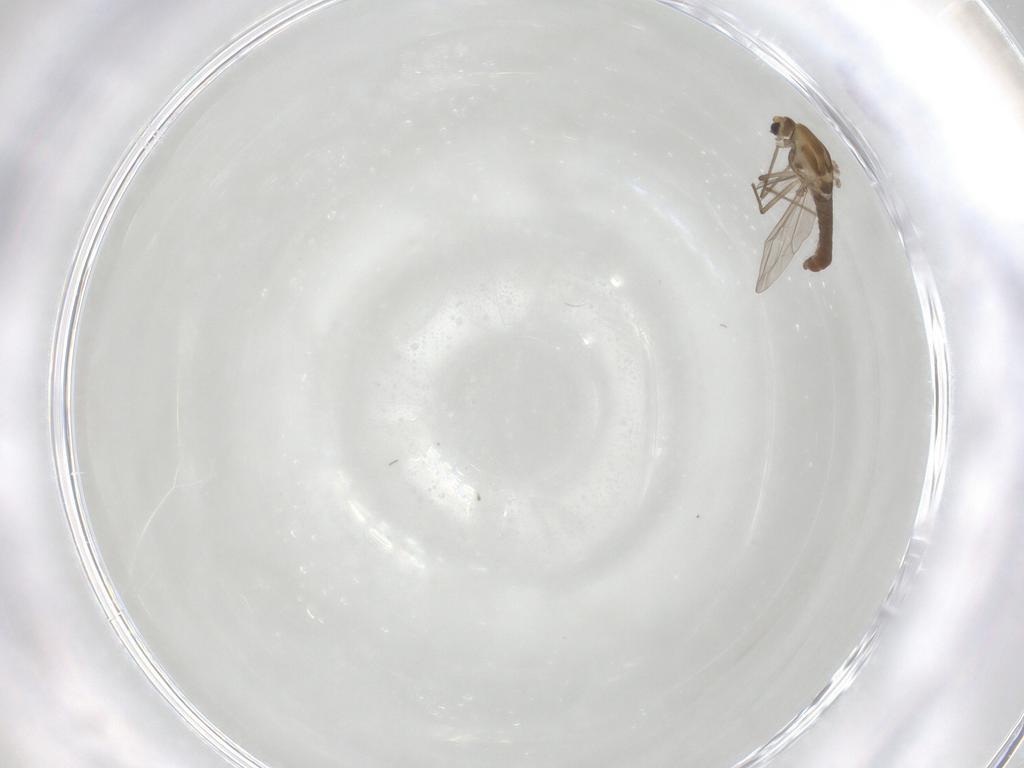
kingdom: Animalia
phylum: Arthropoda
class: Insecta
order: Diptera
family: Chironomidae
